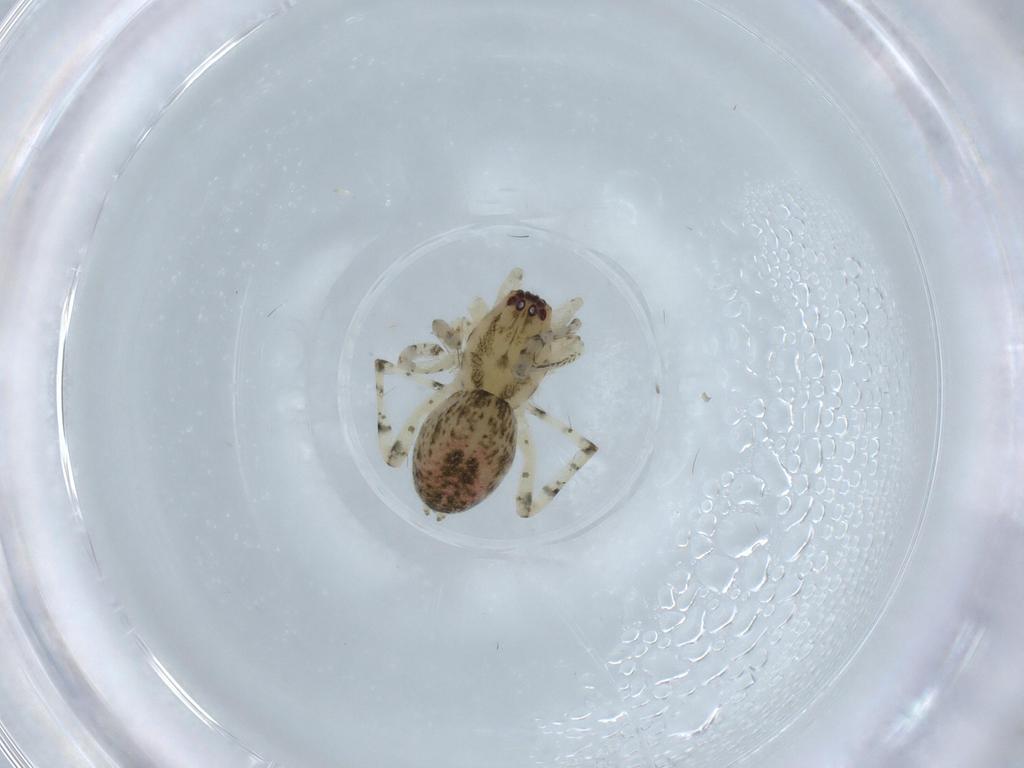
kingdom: Animalia
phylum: Arthropoda
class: Arachnida
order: Araneae
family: Anyphaenidae
